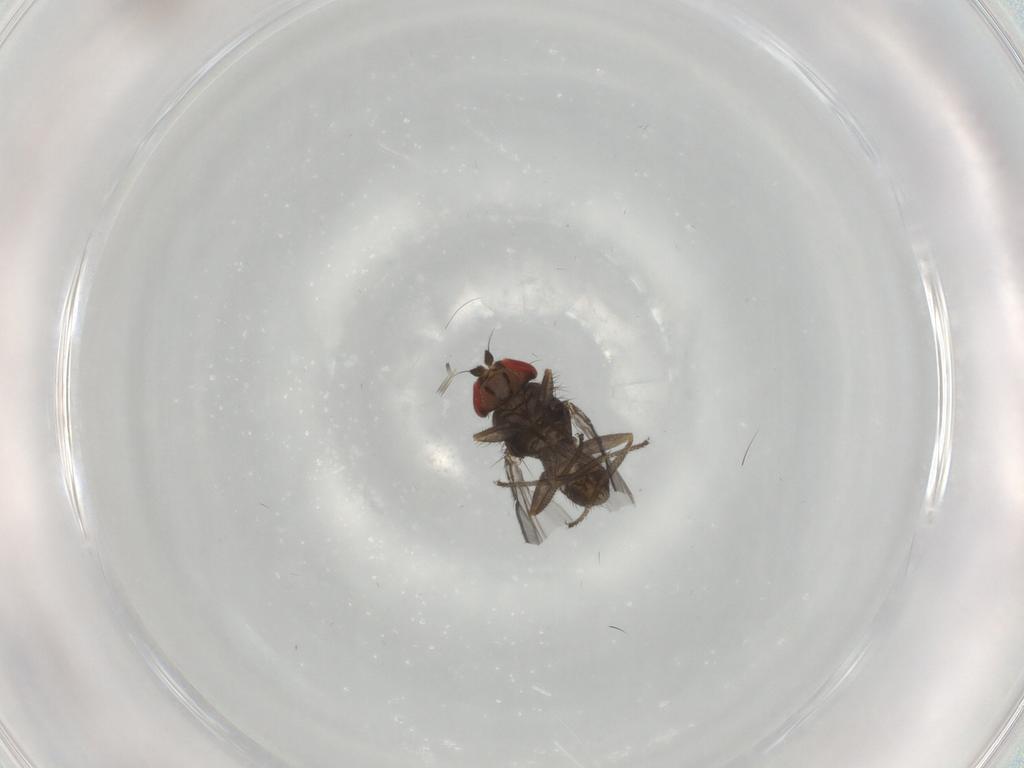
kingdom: Animalia
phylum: Arthropoda
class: Insecta
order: Diptera
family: Drosophilidae
